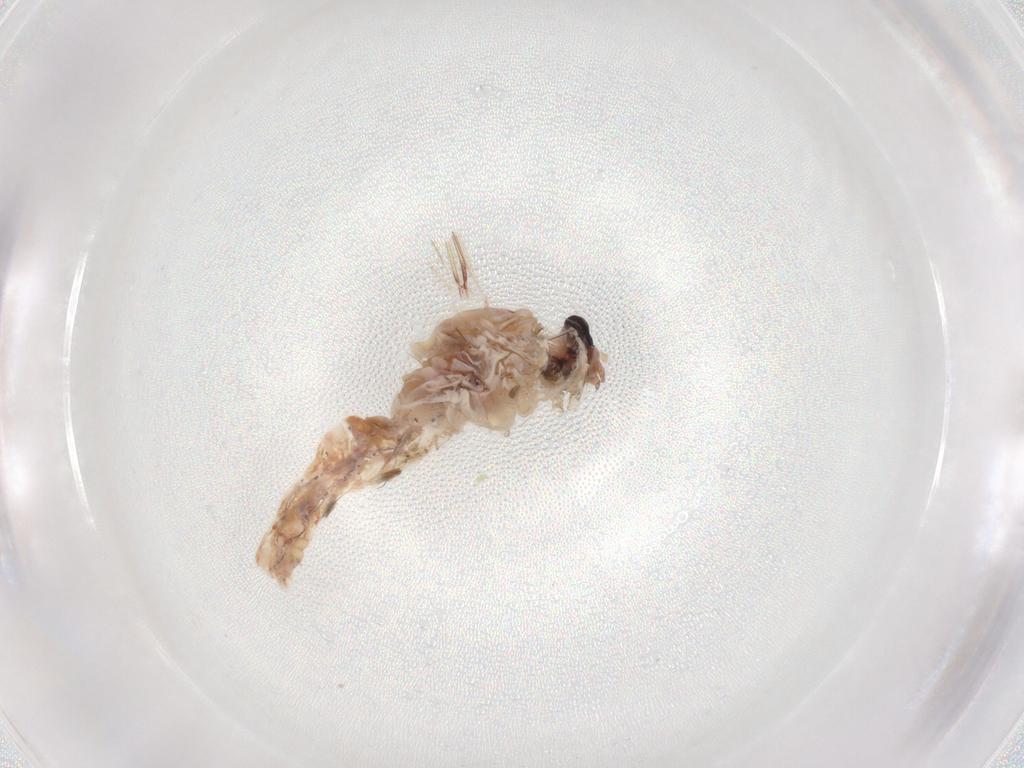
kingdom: Animalia
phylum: Arthropoda
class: Insecta
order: Ephemeroptera
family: Baetidae
